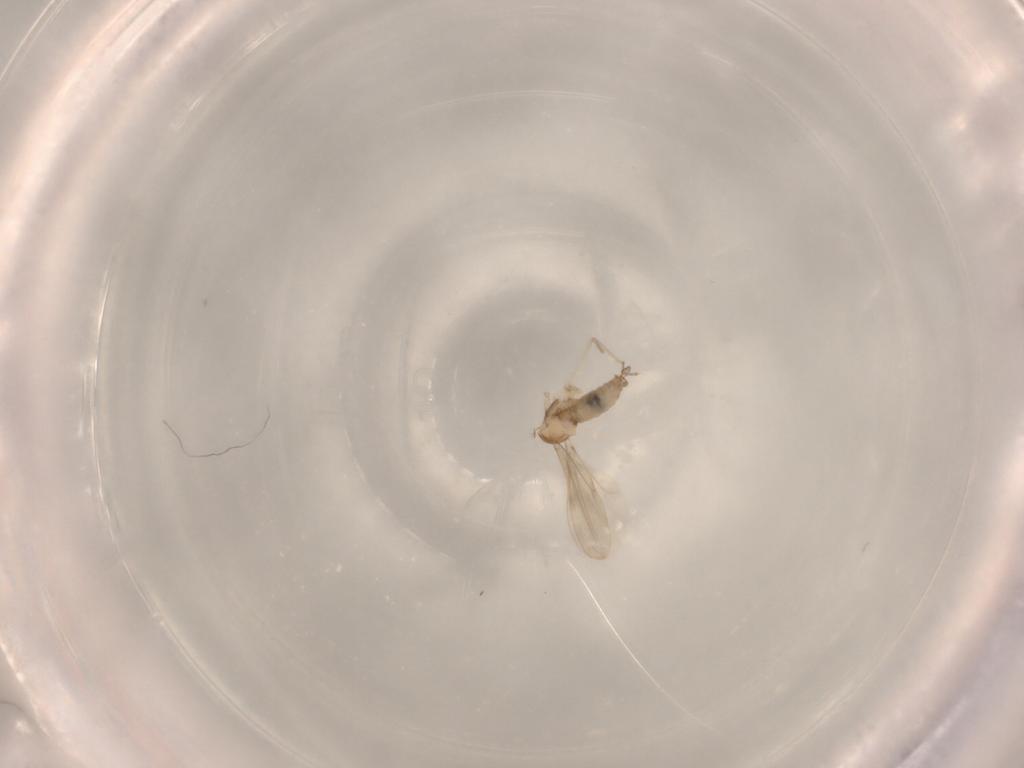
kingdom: Animalia
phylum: Arthropoda
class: Insecta
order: Diptera
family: Cecidomyiidae
